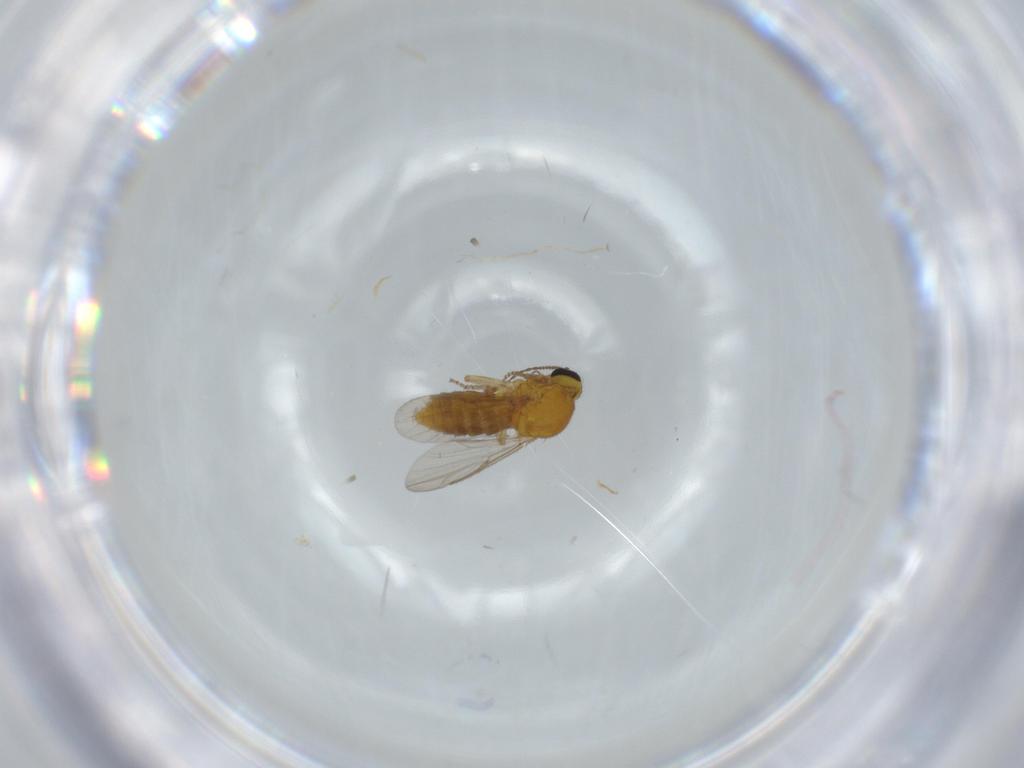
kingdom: Animalia
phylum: Arthropoda
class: Insecta
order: Diptera
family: Ceratopogonidae
